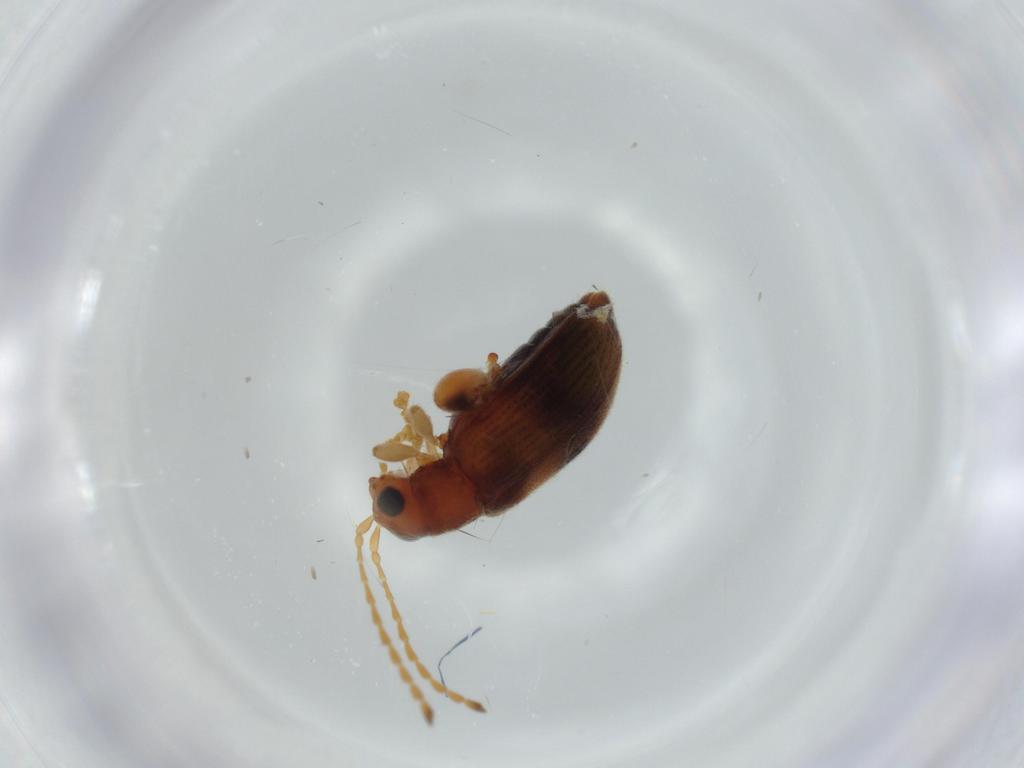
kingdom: Animalia
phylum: Arthropoda
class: Insecta
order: Coleoptera
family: Chrysomelidae
